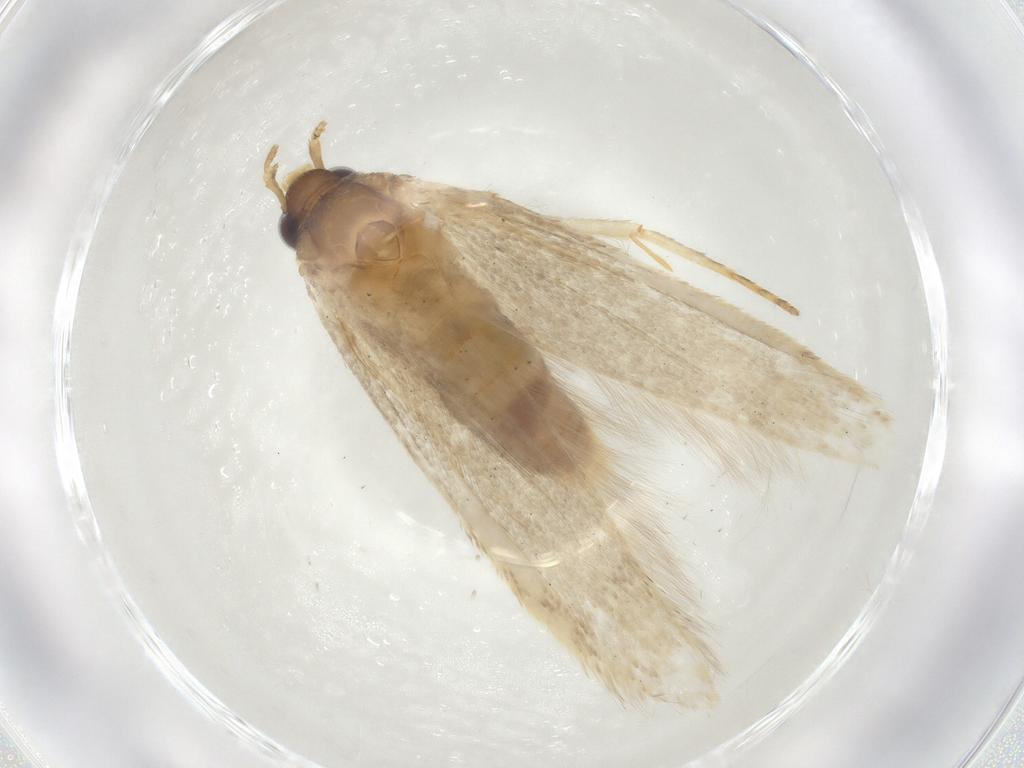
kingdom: Animalia
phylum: Arthropoda
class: Insecta
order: Lepidoptera
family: Coleophoridae
